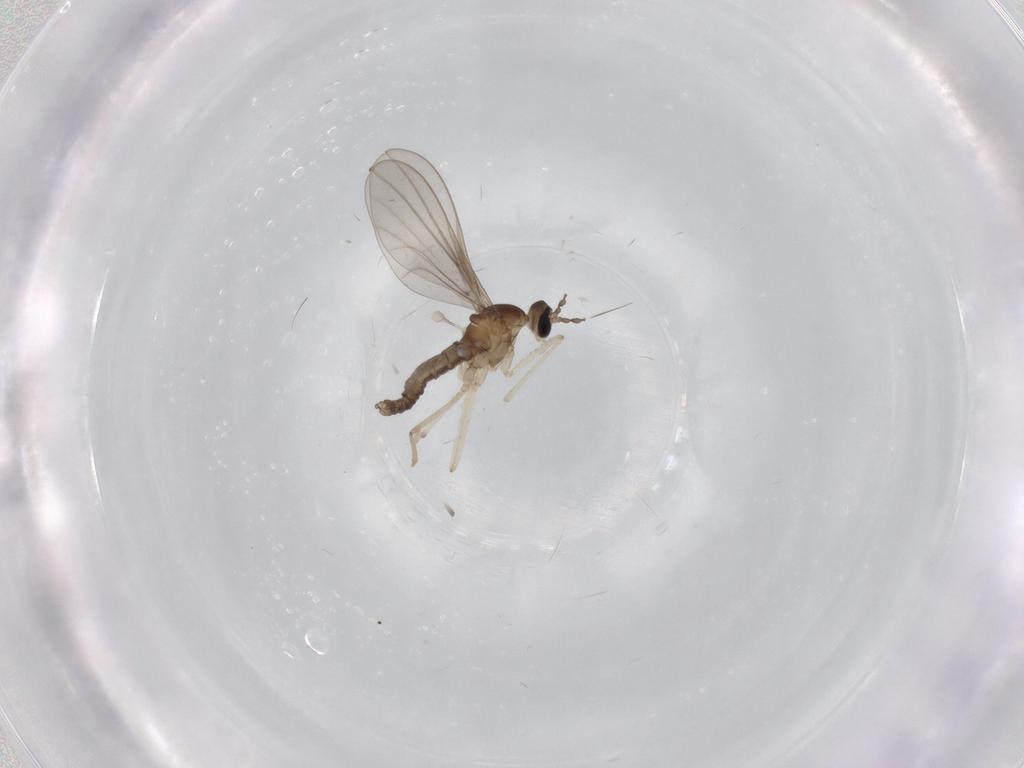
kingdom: Animalia
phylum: Arthropoda
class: Insecta
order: Diptera
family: Cecidomyiidae
